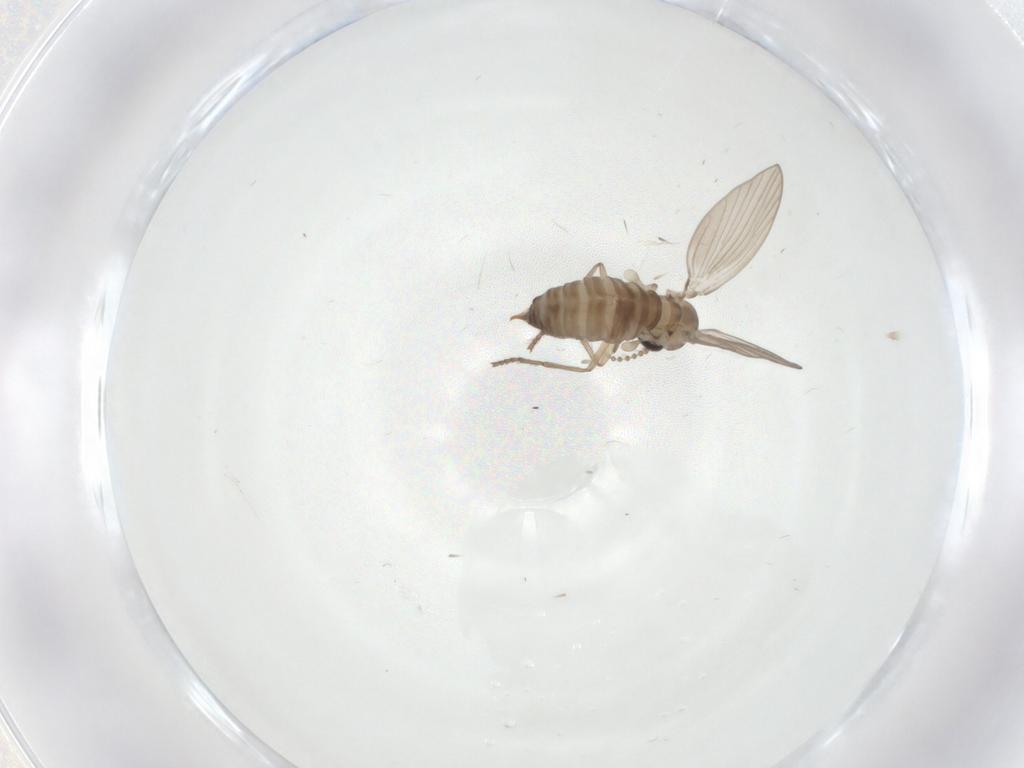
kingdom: Animalia
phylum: Arthropoda
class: Insecta
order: Diptera
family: Psychodidae
